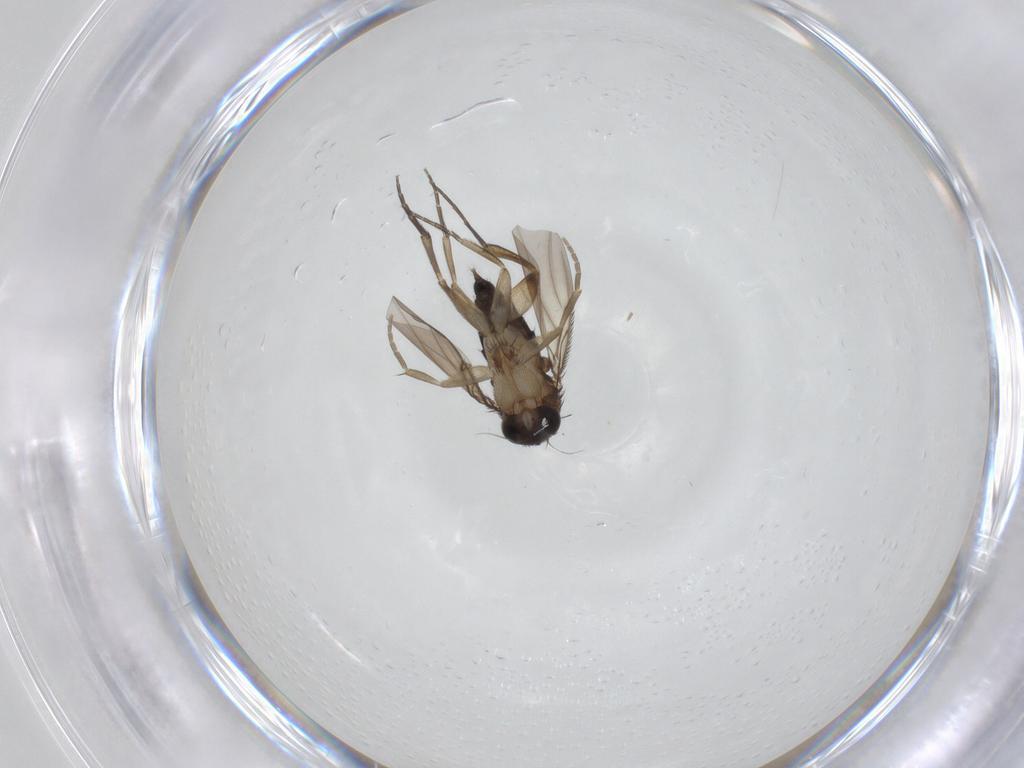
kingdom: Animalia
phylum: Arthropoda
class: Insecta
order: Diptera
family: Phoridae
